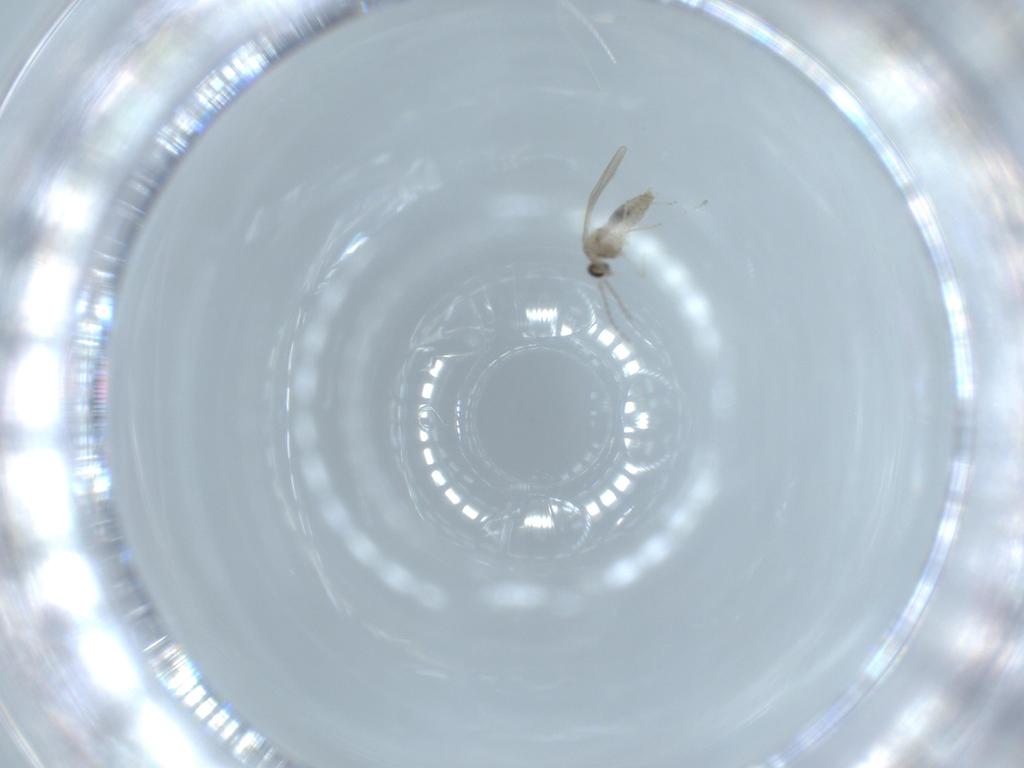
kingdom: Animalia
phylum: Arthropoda
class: Insecta
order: Diptera
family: Cecidomyiidae
